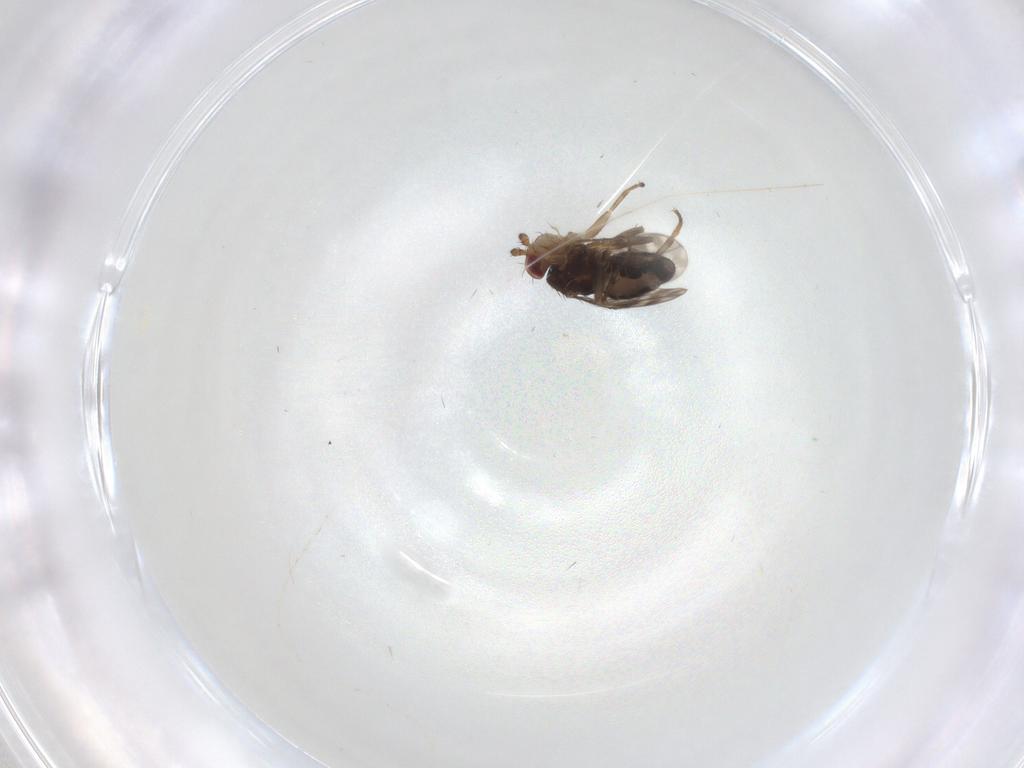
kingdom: Animalia
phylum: Arthropoda
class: Insecta
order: Diptera
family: Sphaeroceridae
